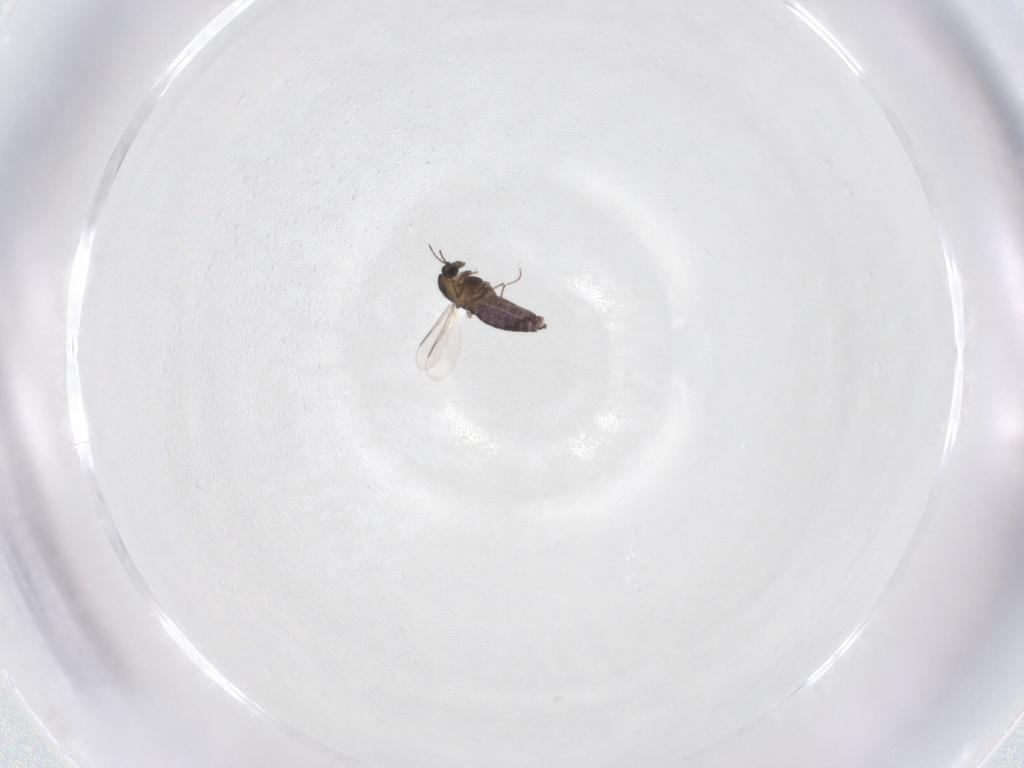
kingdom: Animalia
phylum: Arthropoda
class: Insecta
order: Diptera
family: Chironomidae
